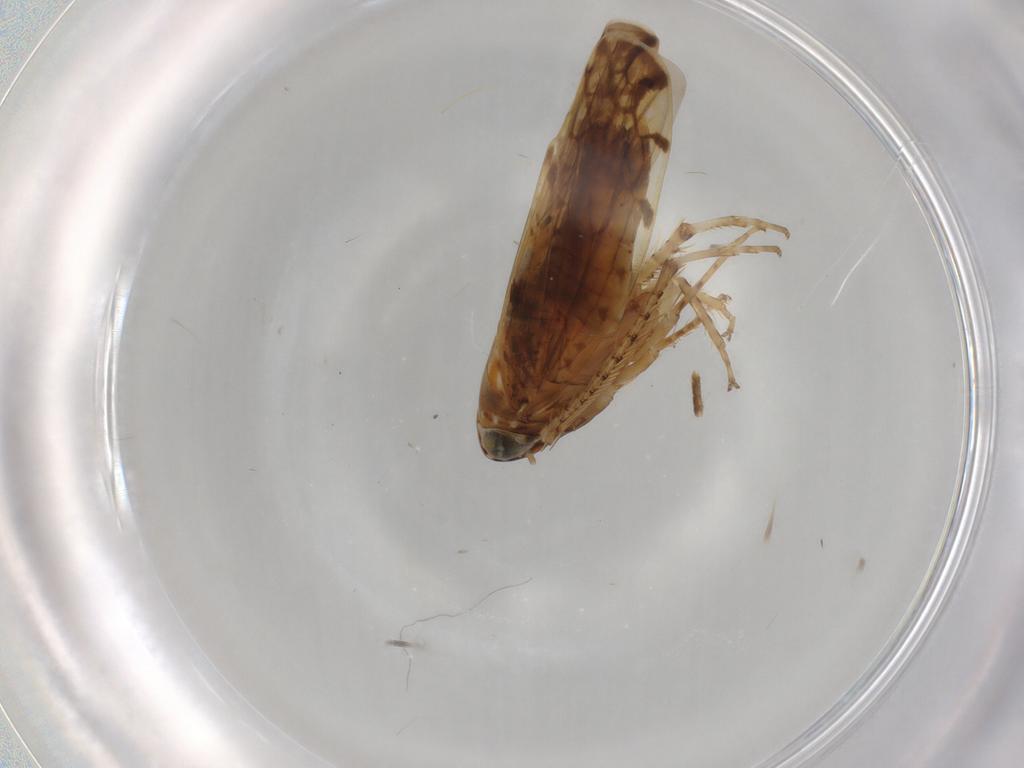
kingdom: Animalia
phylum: Arthropoda
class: Insecta
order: Hemiptera
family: Cicadellidae
